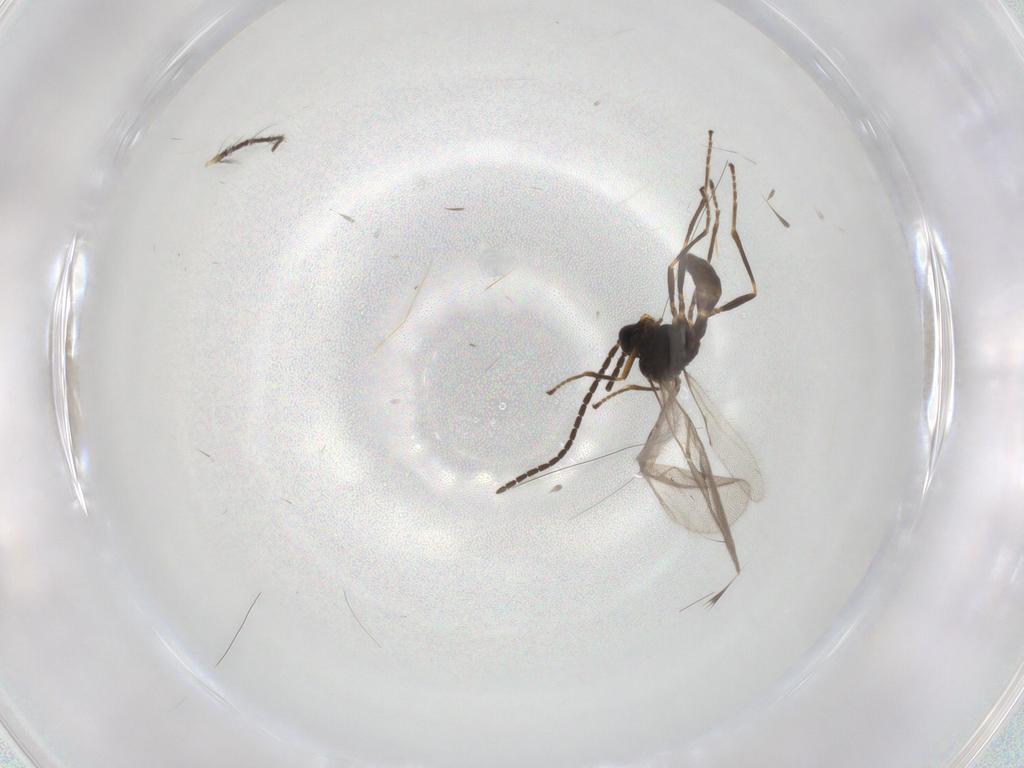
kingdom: Animalia
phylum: Arthropoda
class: Insecta
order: Hymenoptera
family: Braconidae
